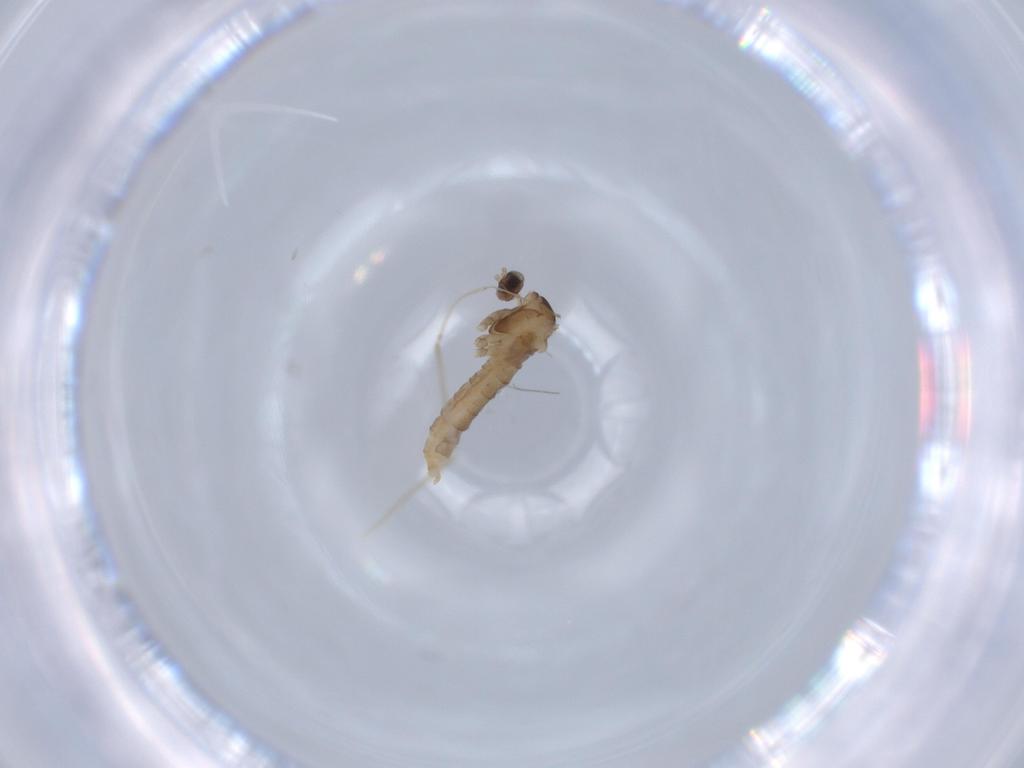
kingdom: Animalia
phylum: Arthropoda
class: Insecta
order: Diptera
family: Cecidomyiidae
